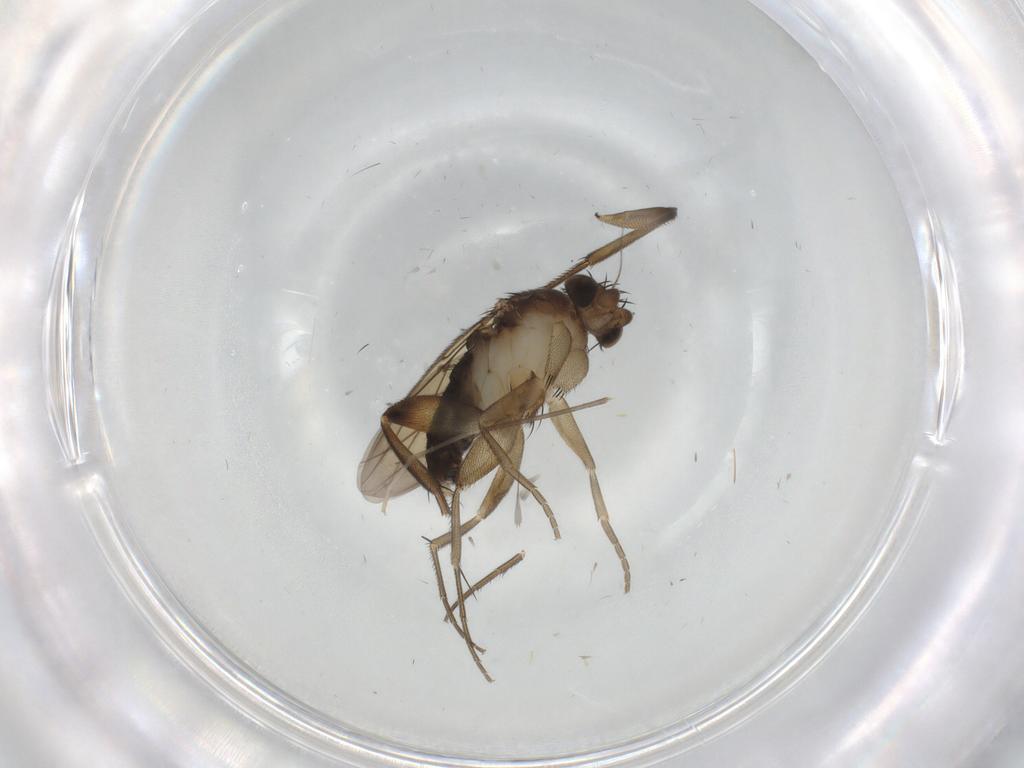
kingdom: Animalia
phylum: Arthropoda
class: Insecta
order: Diptera
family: Phoridae
